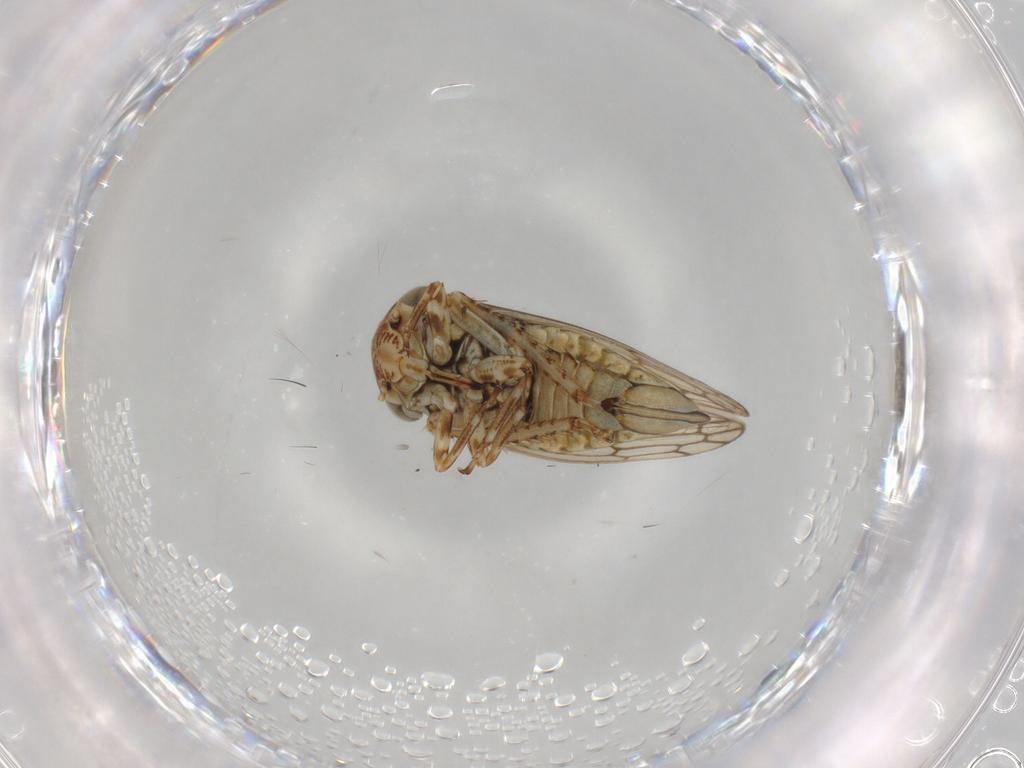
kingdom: Animalia
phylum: Arthropoda
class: Insecta
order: Hemiptera
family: Cicadellidae
